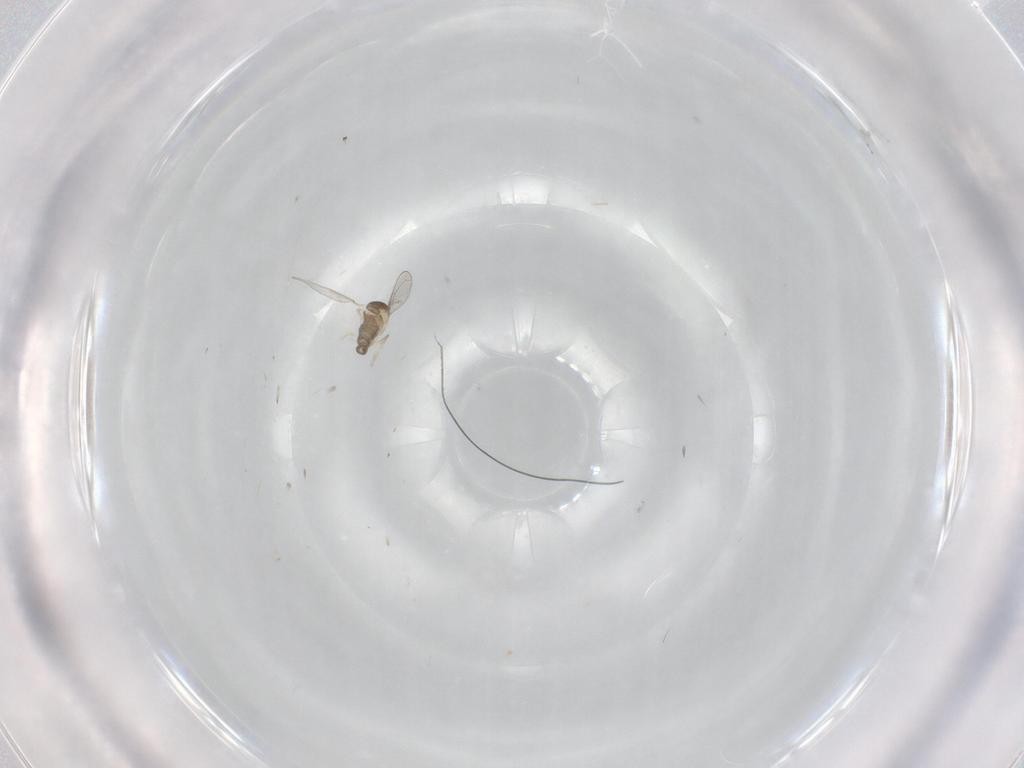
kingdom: Animalia
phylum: Arthropoda
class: Insecta
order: Diptera
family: Cecidomyiidae
